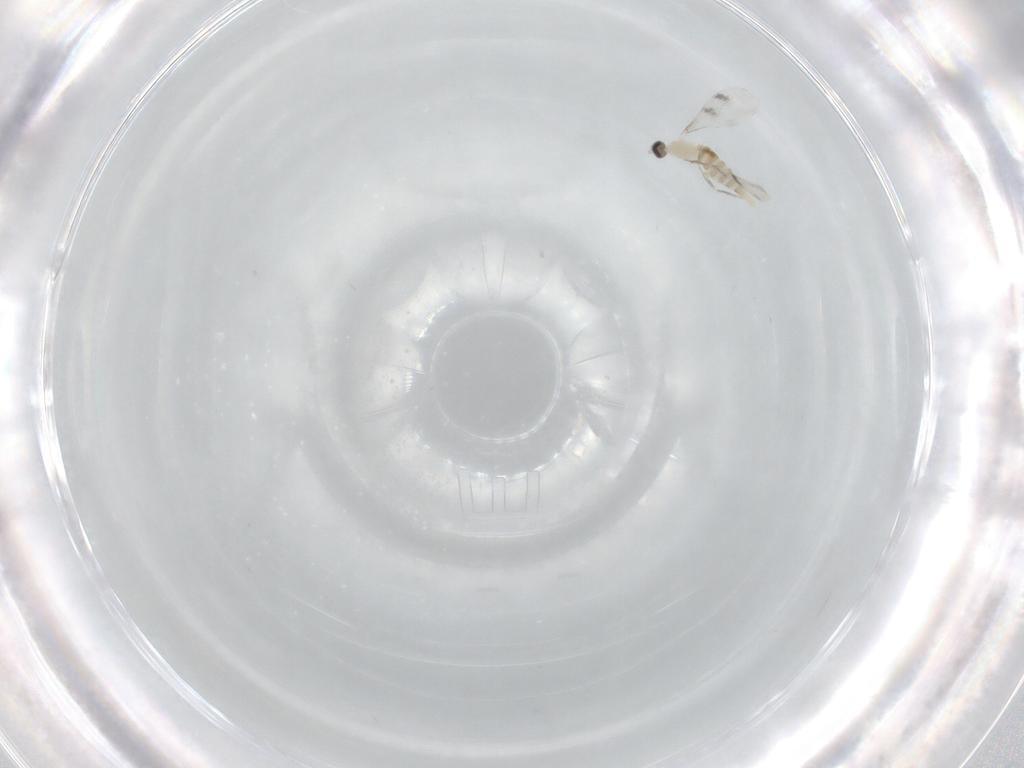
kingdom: Animalia
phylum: Arthropoda
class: Insecta
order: Diptera
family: Cecidomyiidae
